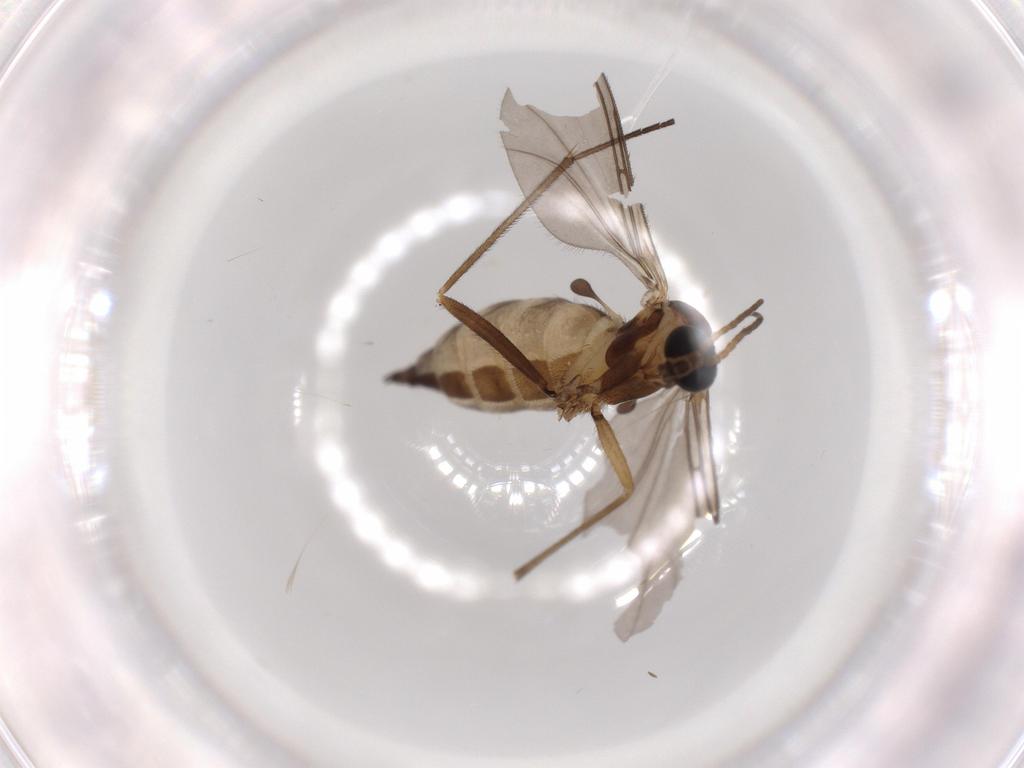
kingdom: Animalia
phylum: Arthropoda
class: Insecta
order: Diptera
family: Sciaridae
